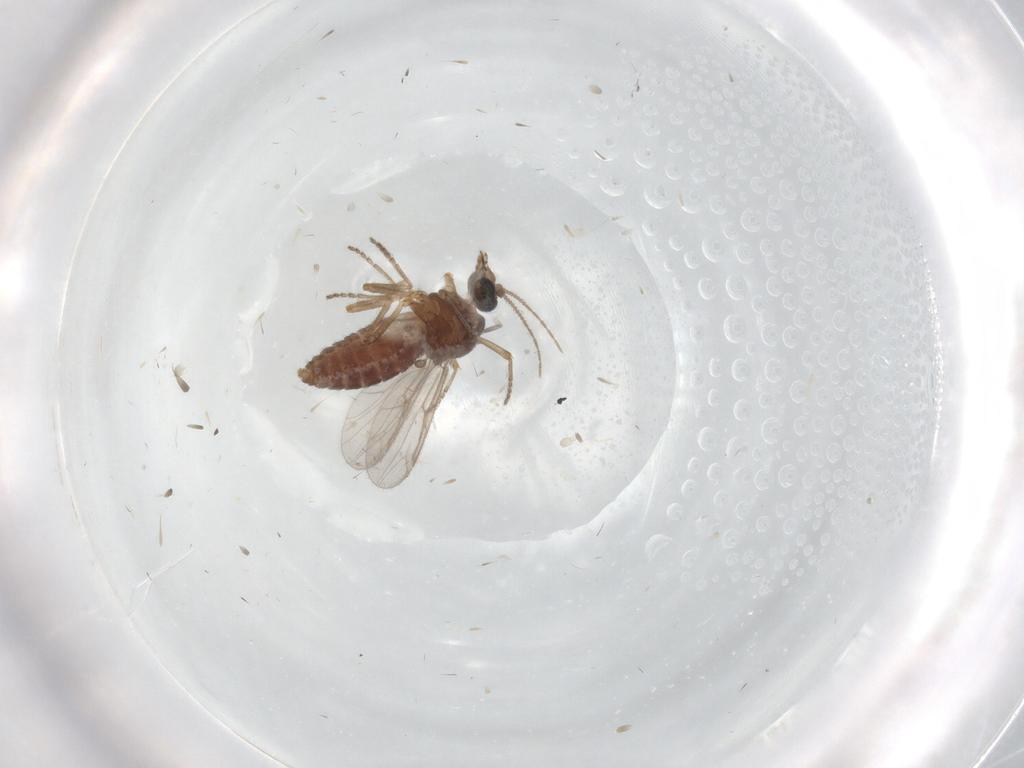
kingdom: Animalia
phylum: Arthropoda
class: Insecta
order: Diptera
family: Ceratopogonidae
